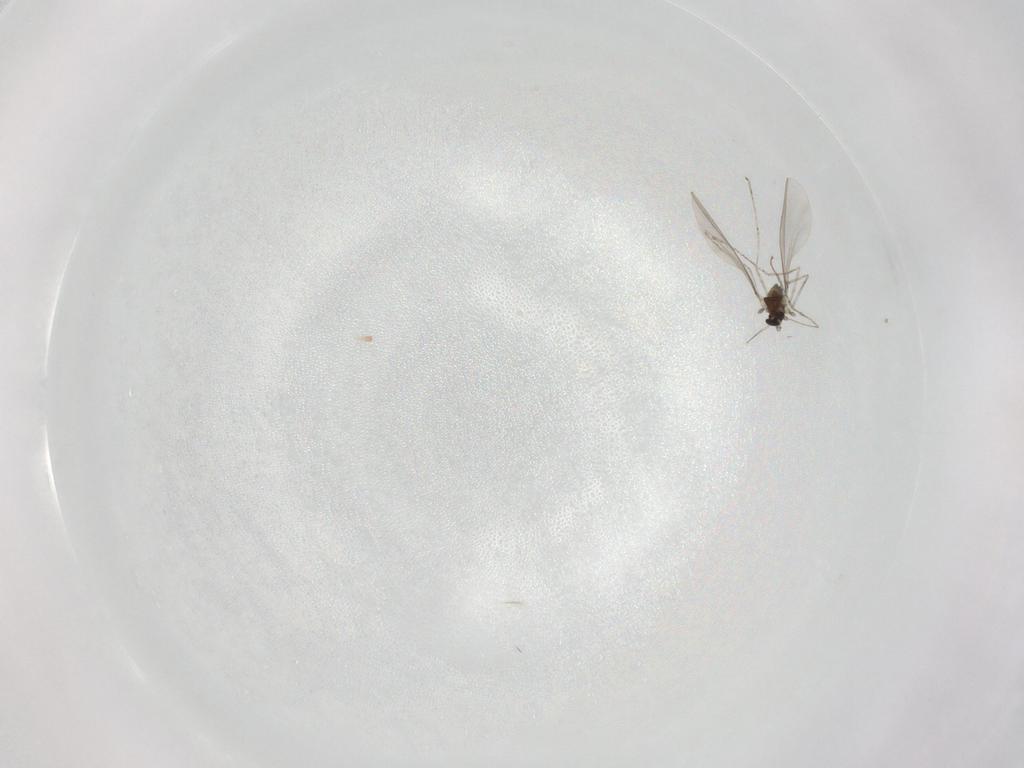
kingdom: Animalia
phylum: Arthropoda
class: Insecta
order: Diptera
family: Cecidomyiidae
